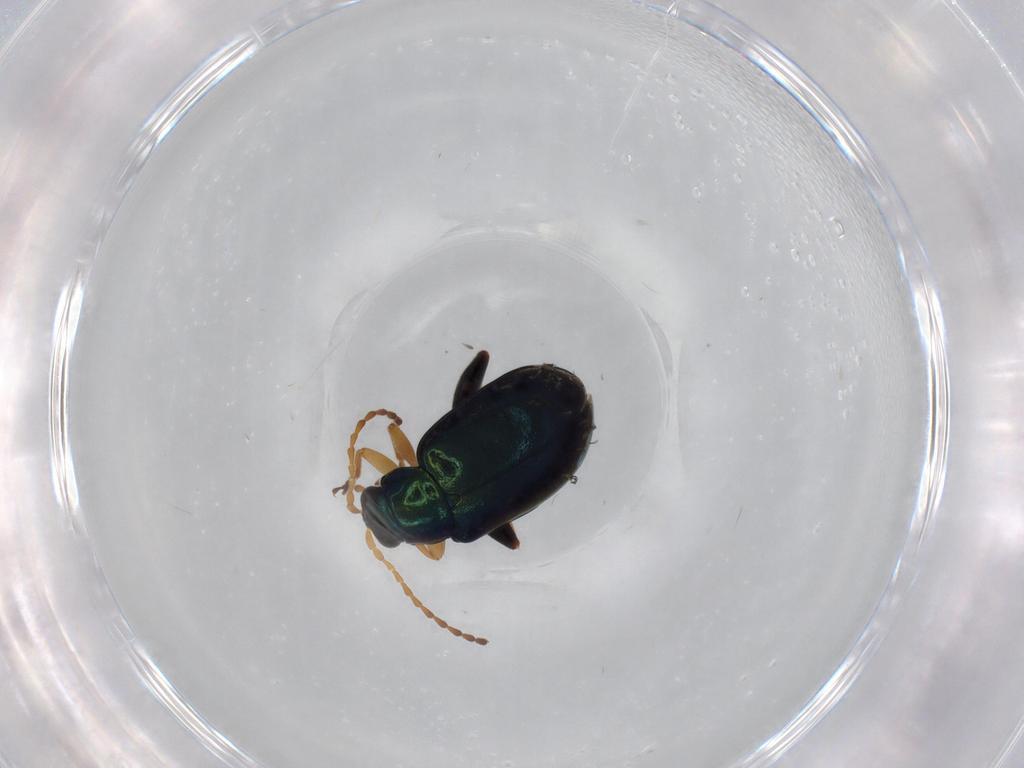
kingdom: Animalia
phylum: Arthropoda
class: Insecta
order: Coleoptera
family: Chrysomelidae
